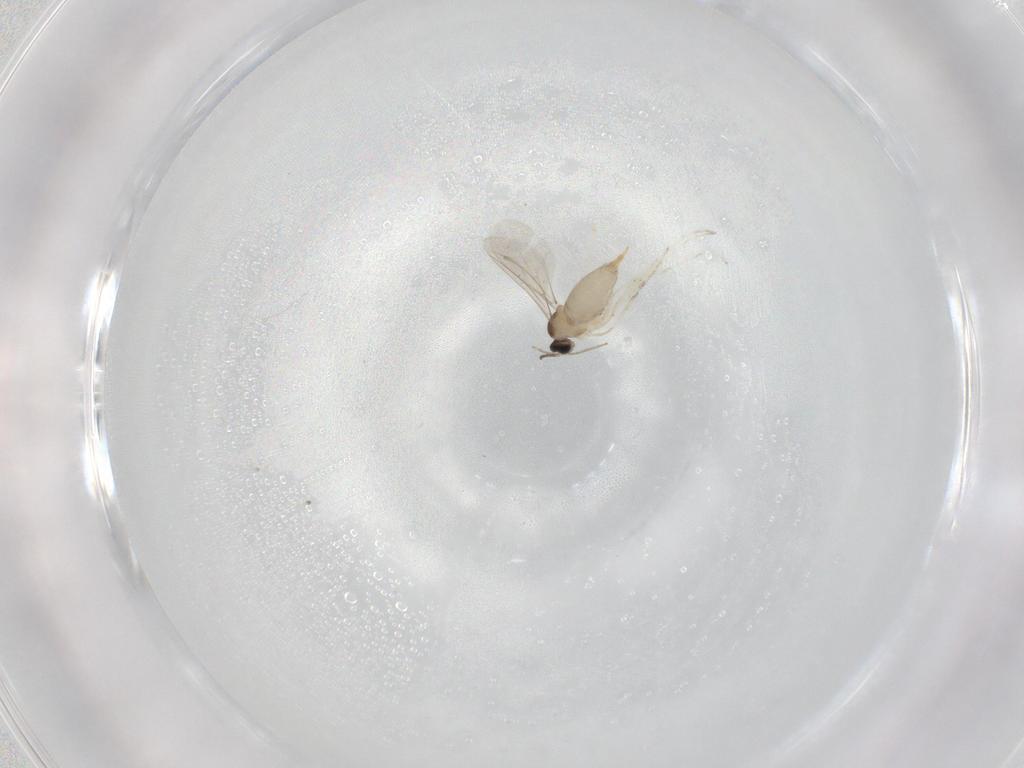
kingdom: Animalia
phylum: Arthropoda
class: Insecta
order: Diptera
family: Cecidomyiidae
